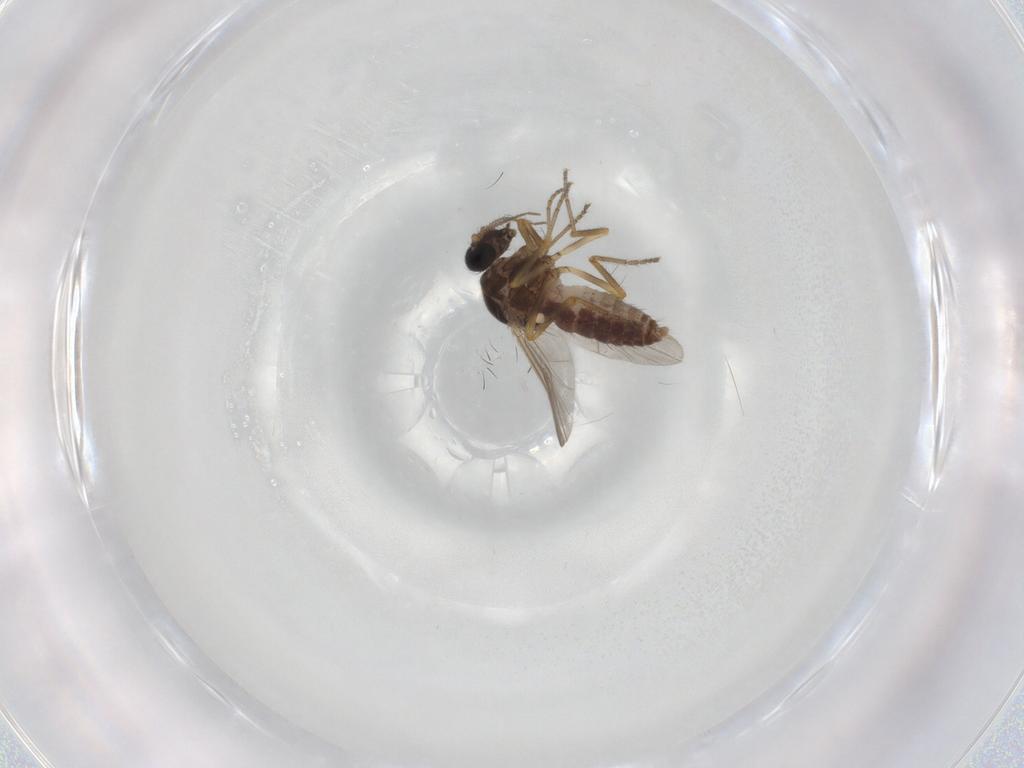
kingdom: Animalia
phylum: Arthropoda
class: Insecta
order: Diptera
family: Ceratopogonidae
